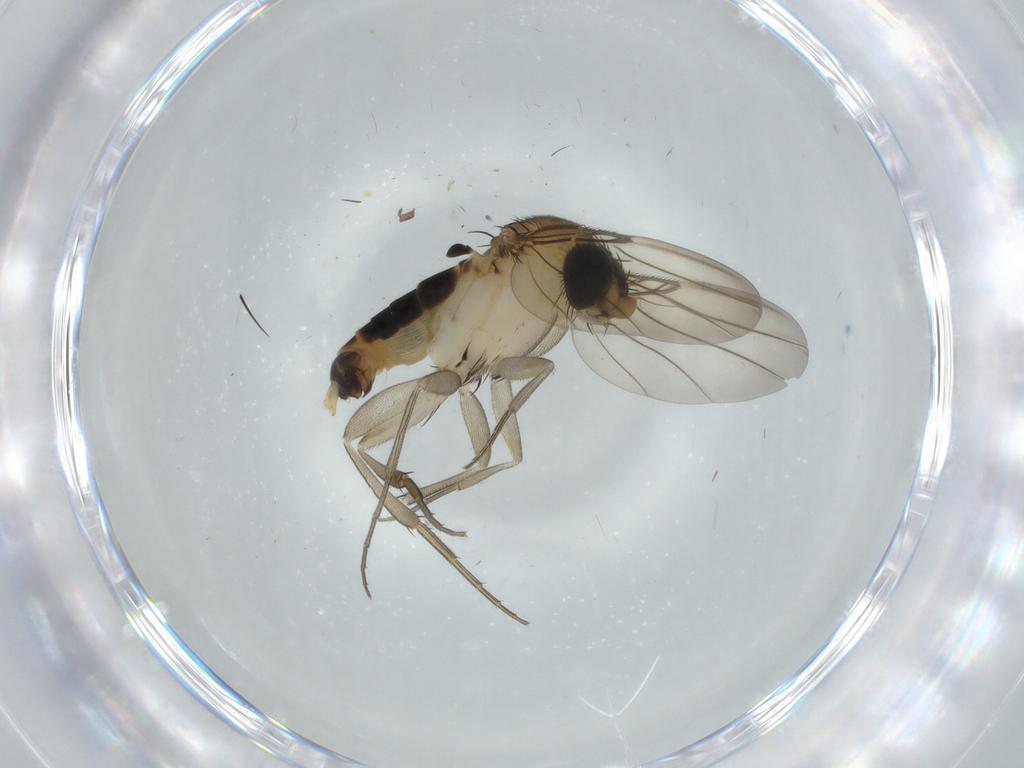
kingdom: Animalia
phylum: Arthropoda
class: Insecta
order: Diptera
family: Phoridae
